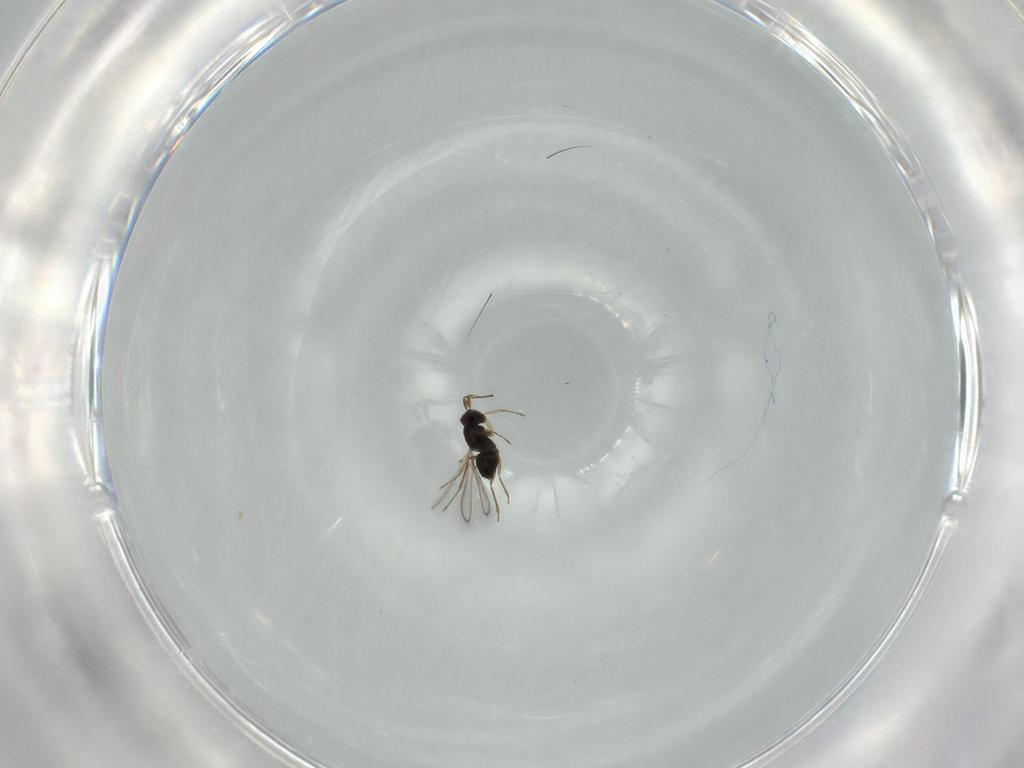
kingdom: Animalia
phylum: Arthropoda
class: Insecta
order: Hymenoptera
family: Mymaridae
